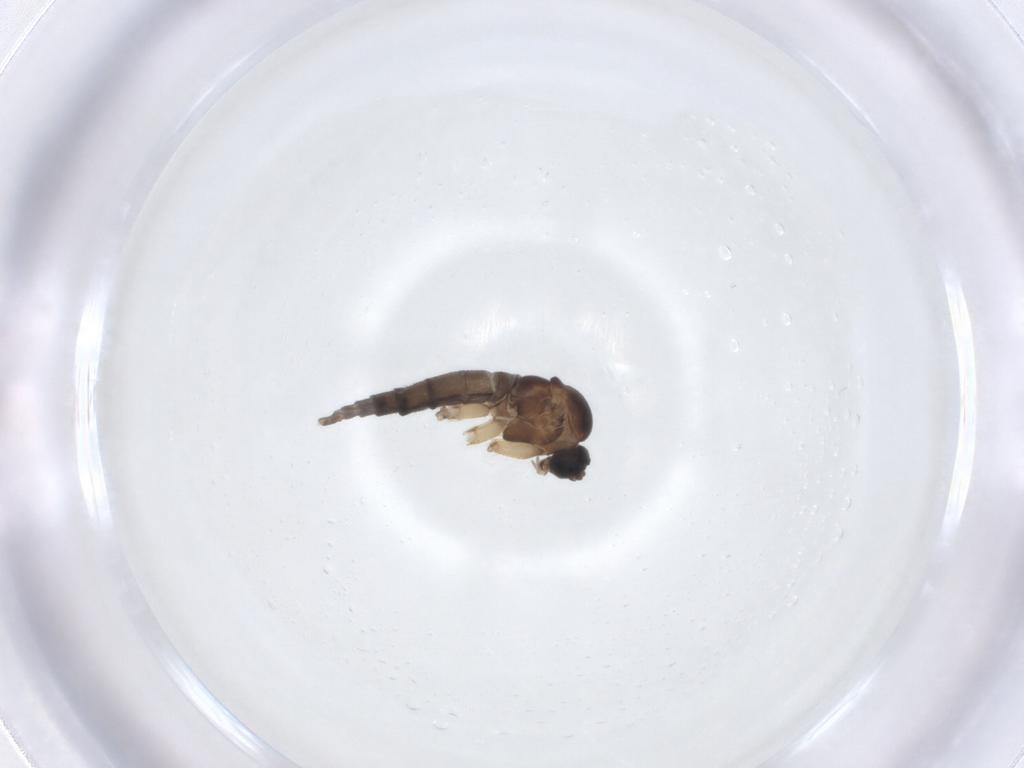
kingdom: Animalia
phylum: Arthropoda
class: Insecta
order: Diptera
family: Sciaridae
